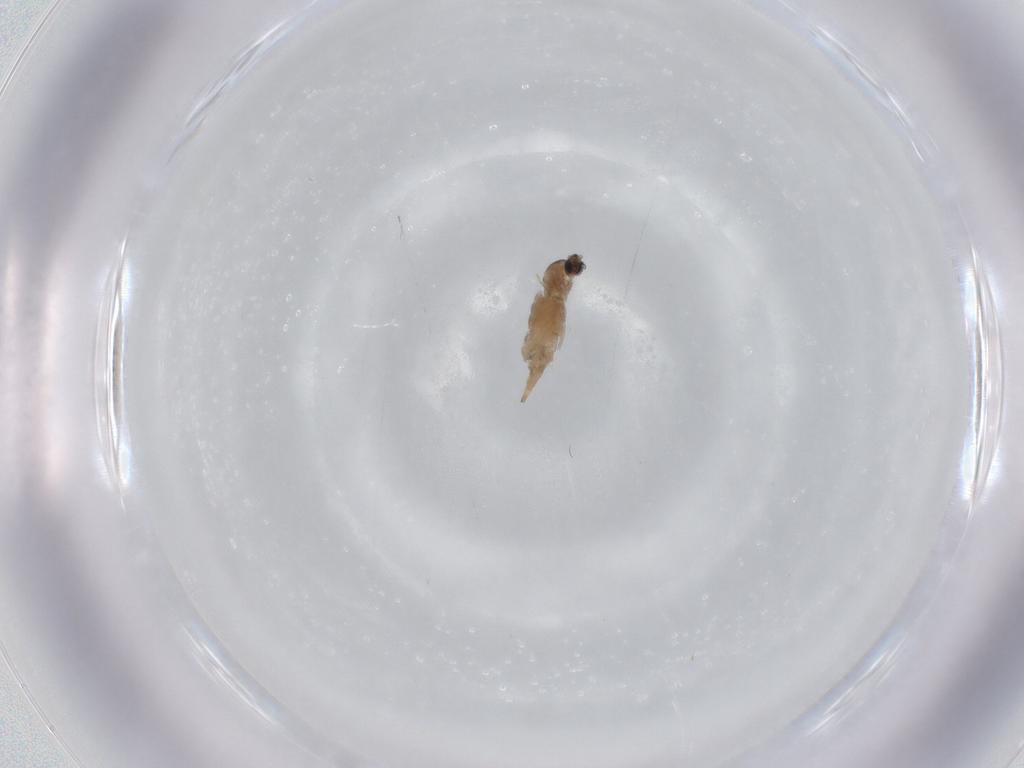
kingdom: Animalia
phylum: Arthropoda
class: Insecta
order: Diptera
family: Cecidomyiidae
